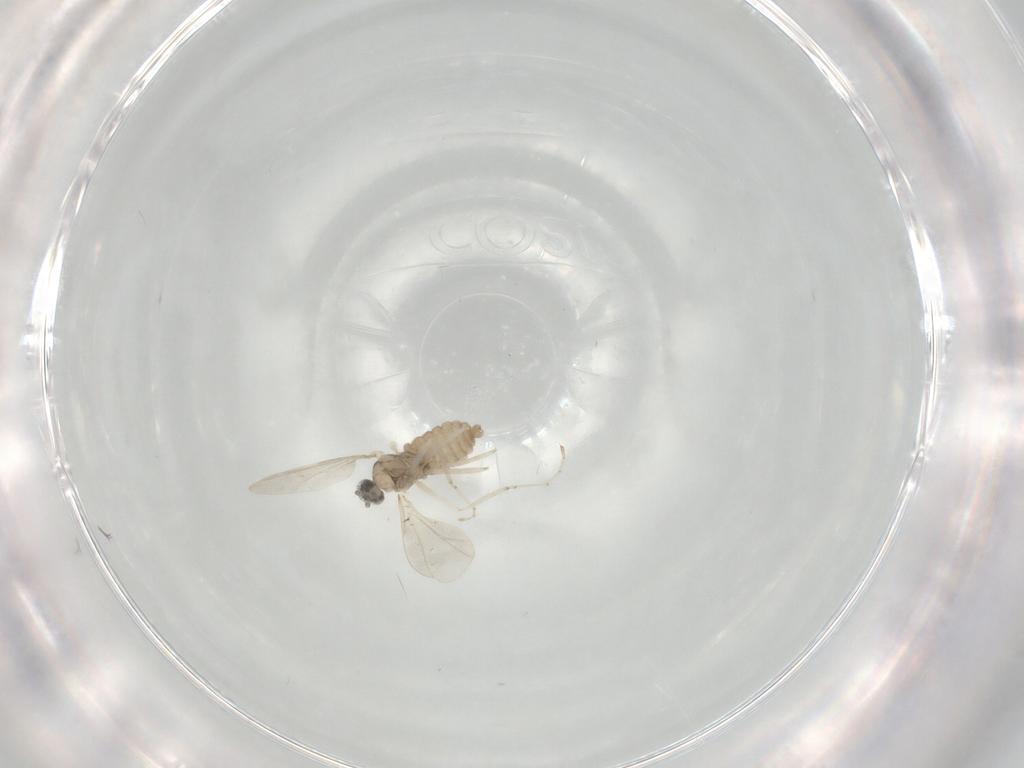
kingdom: Animalia
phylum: Arthropoda
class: Insecta
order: Diptera
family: Cecidomyiidae
